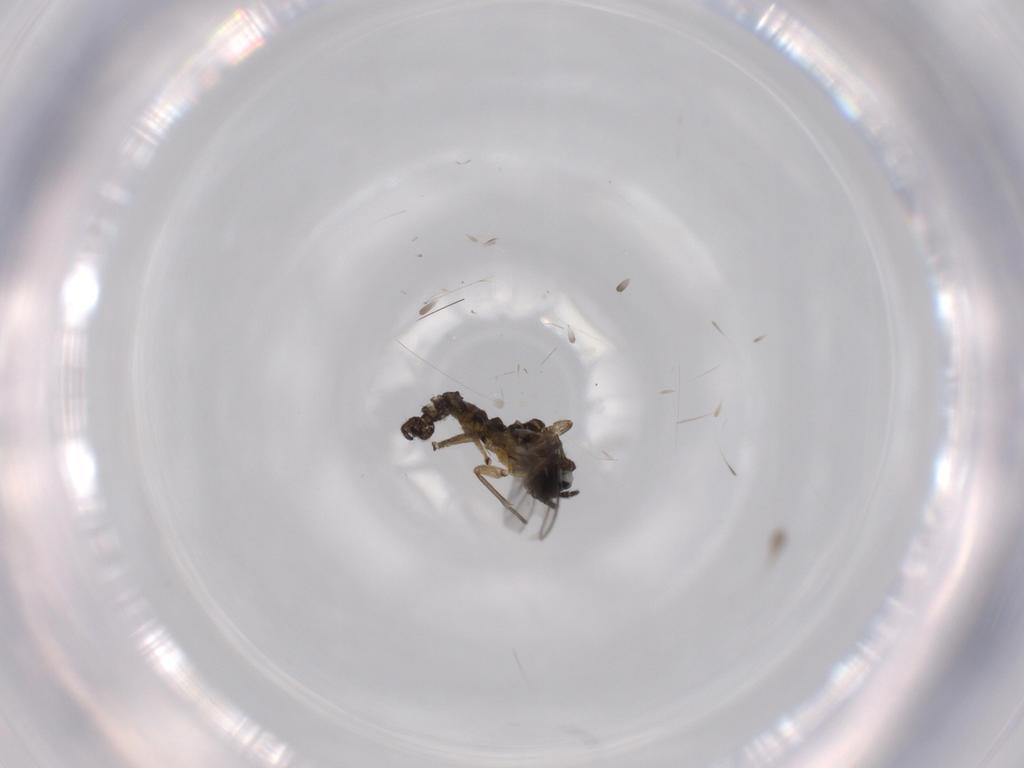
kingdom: Animalia
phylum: Arthropoda
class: Insecta
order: Diptera
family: Sciaridae
